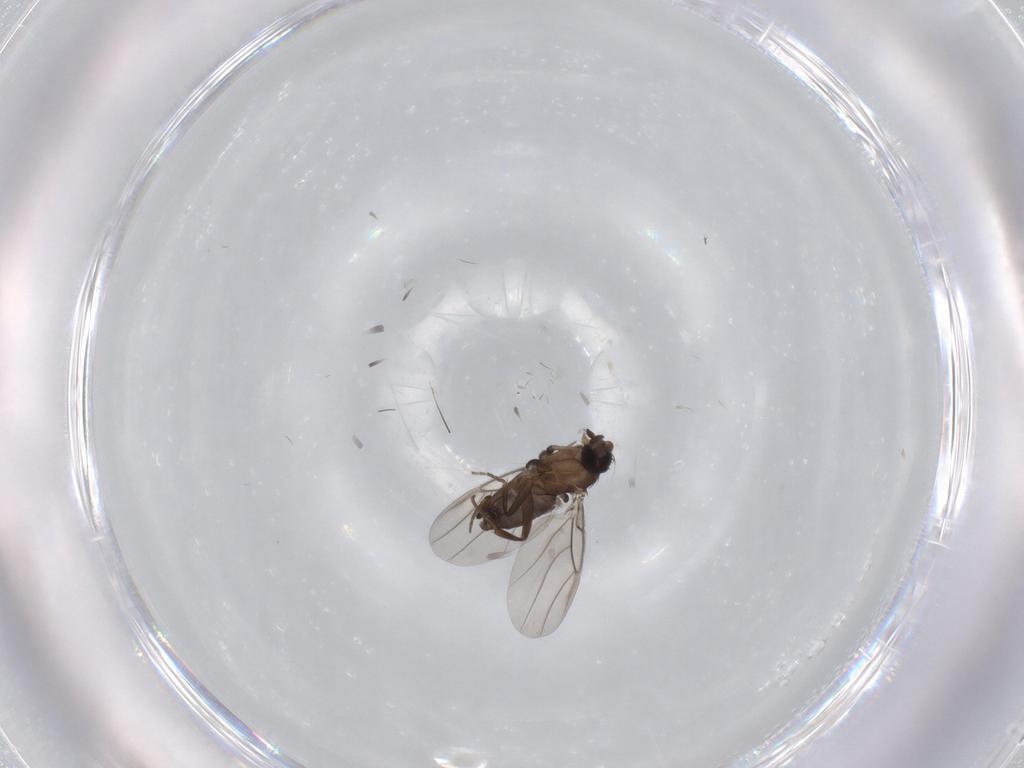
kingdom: Animalia
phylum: Arthropoda
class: Insecta
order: Diptera
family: Phoridae
